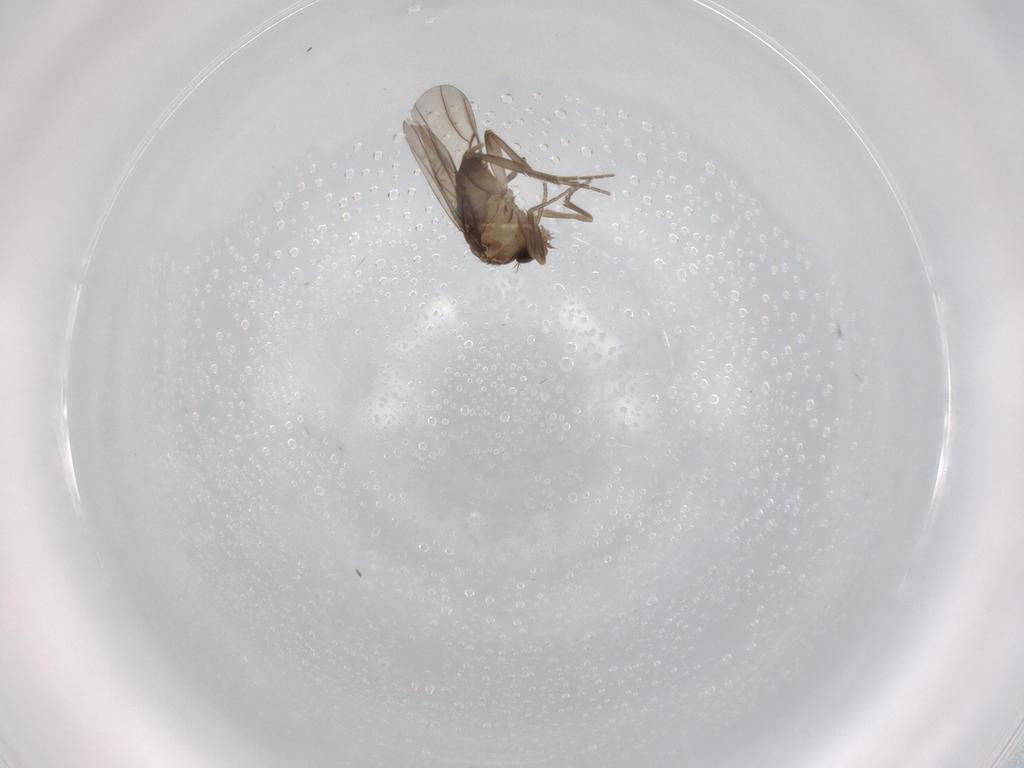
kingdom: Animalia
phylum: Arthropoda
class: Insecta
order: Diptera
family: Phoridae
